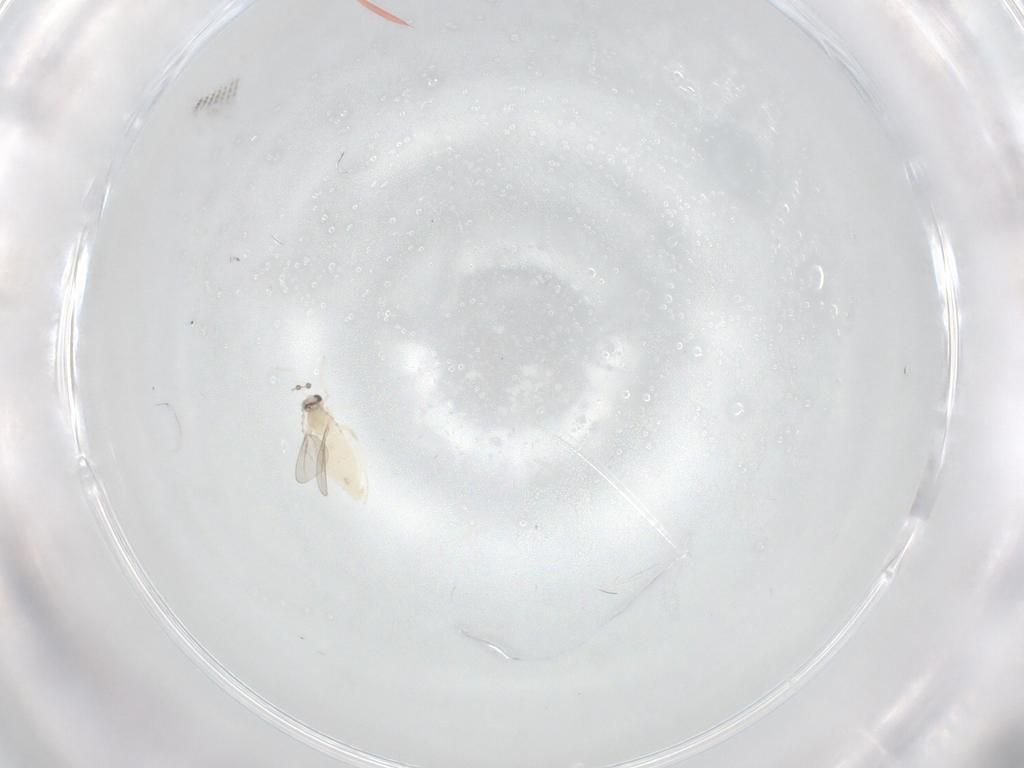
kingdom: Animalia
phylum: Arthropoda
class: Insecta
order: Diptera
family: Cecidomyiidae
